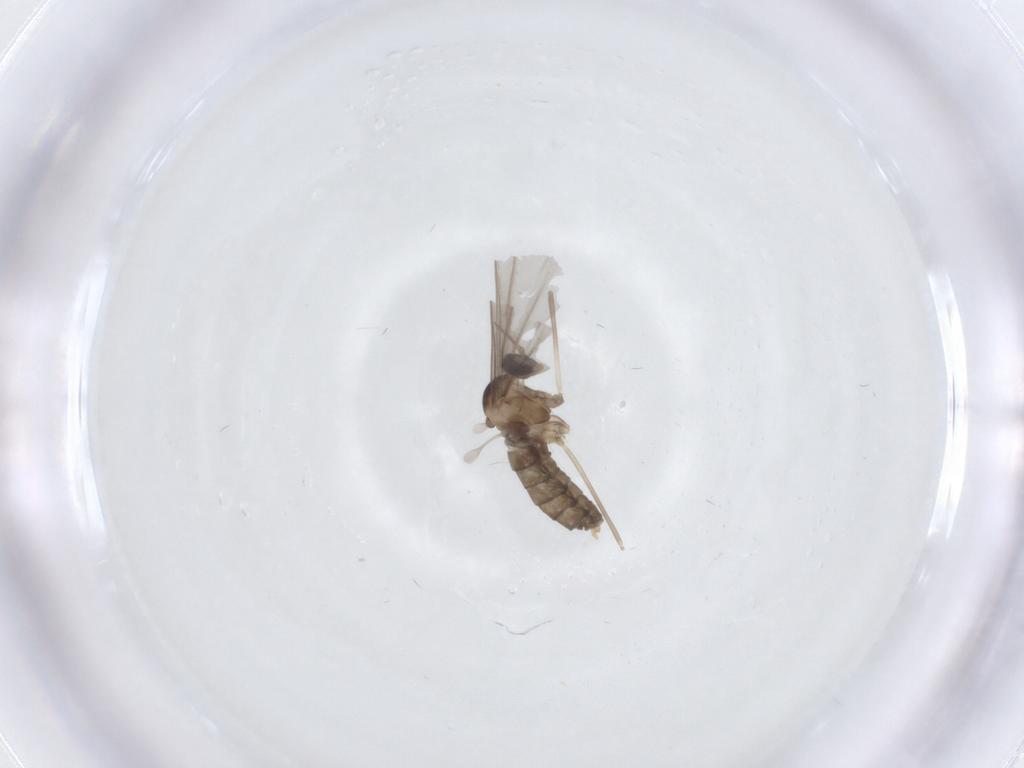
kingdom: Animalia
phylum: Arthropoda
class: Insecta
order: Diptera
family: Cecidomyiidae
